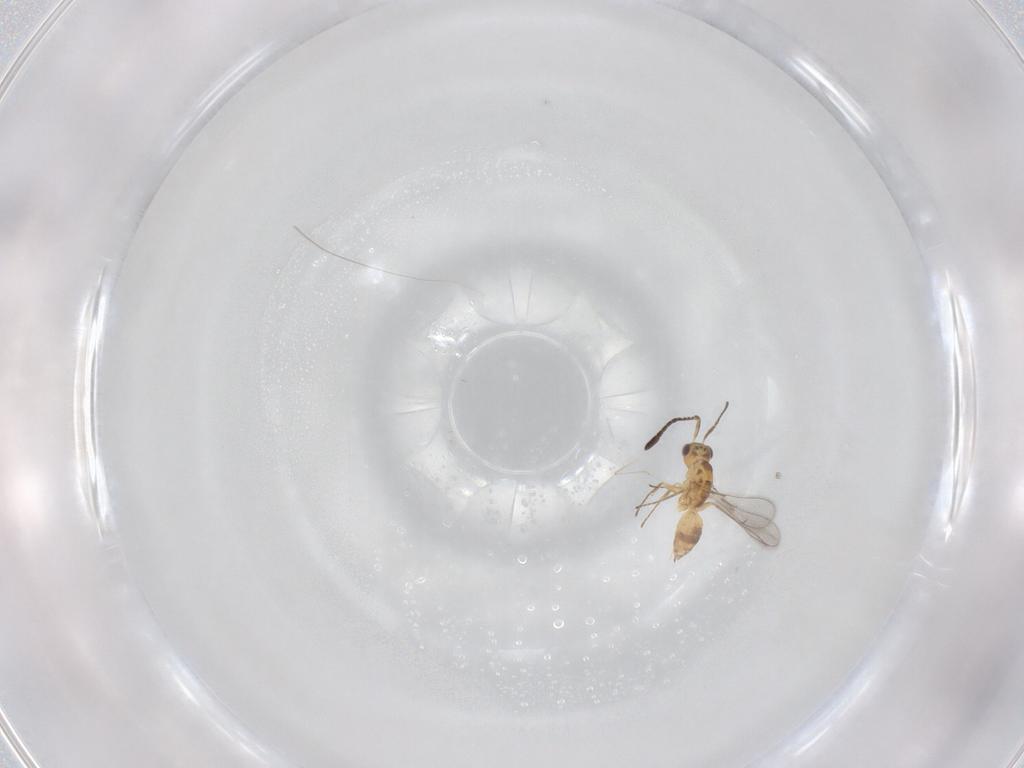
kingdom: Animalia
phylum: Arthropoda
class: Insecta
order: Hymenoptera
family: Mymaridae
